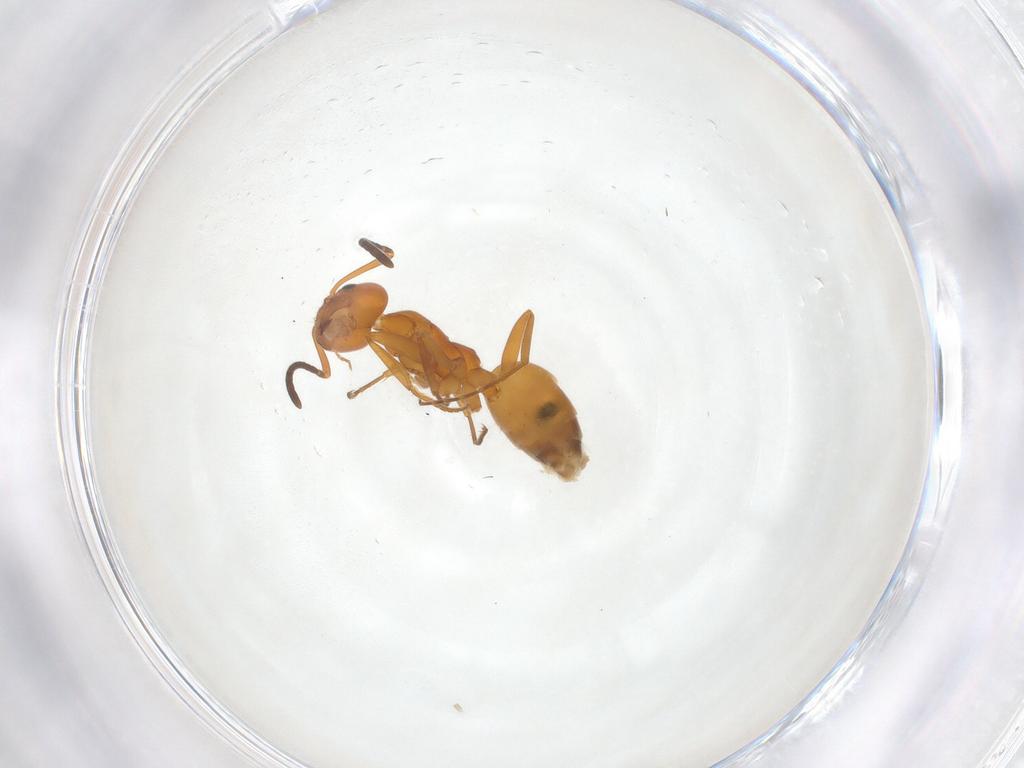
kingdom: Animalia
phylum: Arthropoda
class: Insecta
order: Hymenoptera
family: Formicidae
